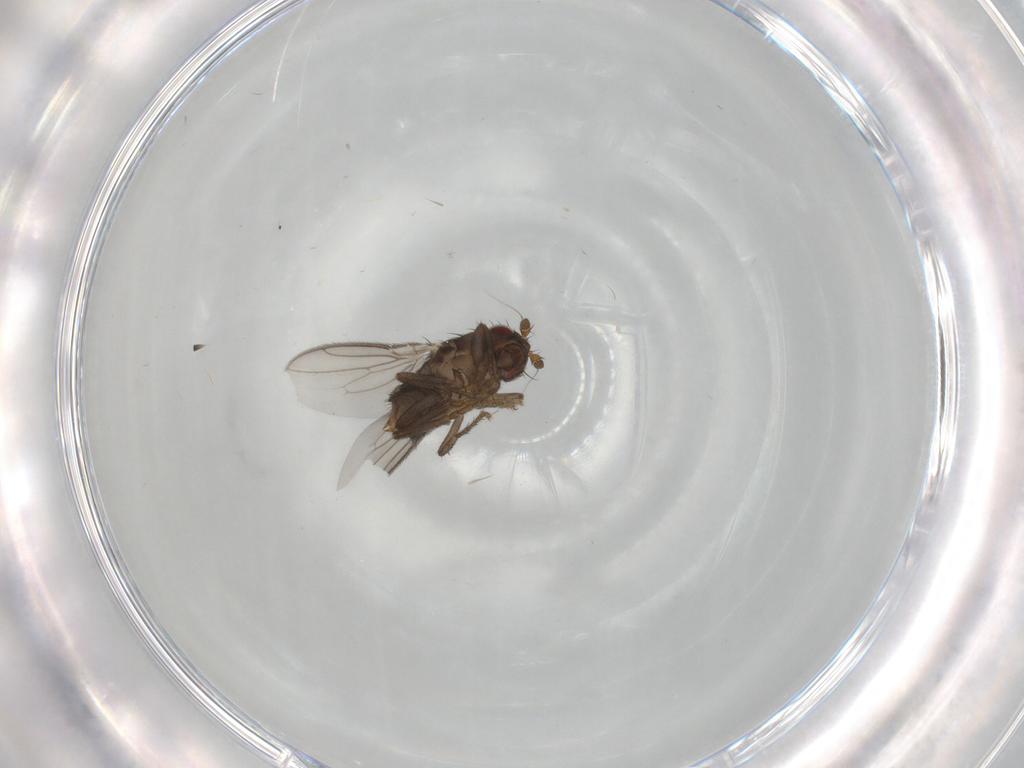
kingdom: Animalia
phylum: Arthropoda
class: Insecta
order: Diptera
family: Sphaeroceridae
